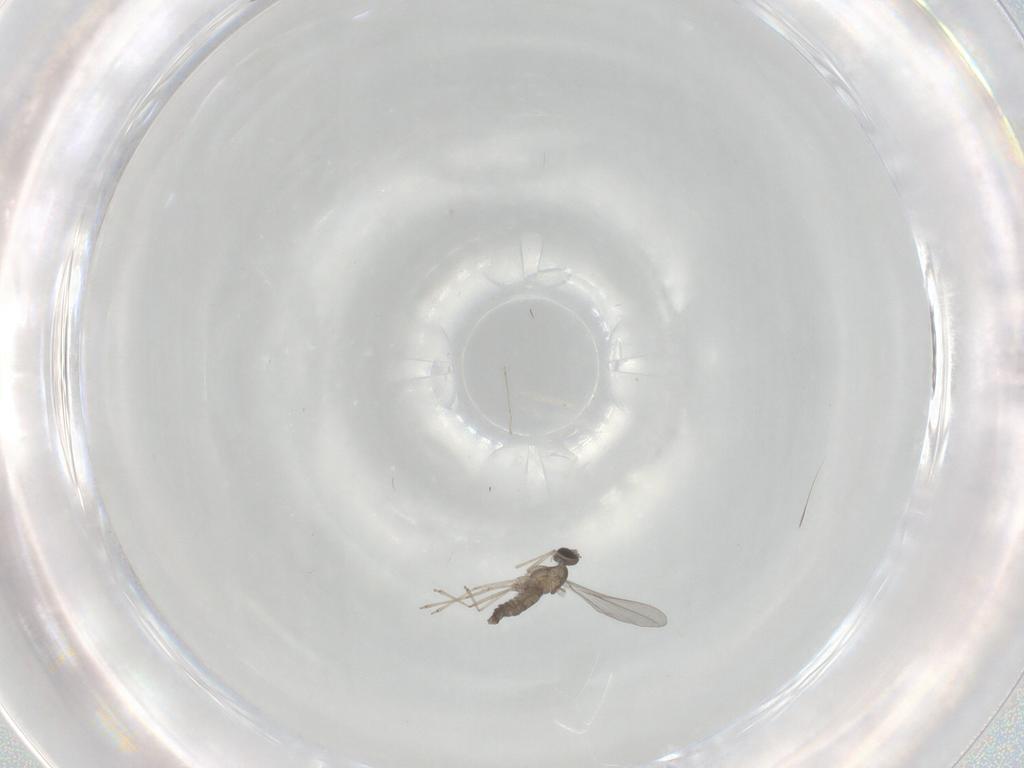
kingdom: Animalia
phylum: Arthropoda
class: Insecta
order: Diptera
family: Cecidomyiidae
